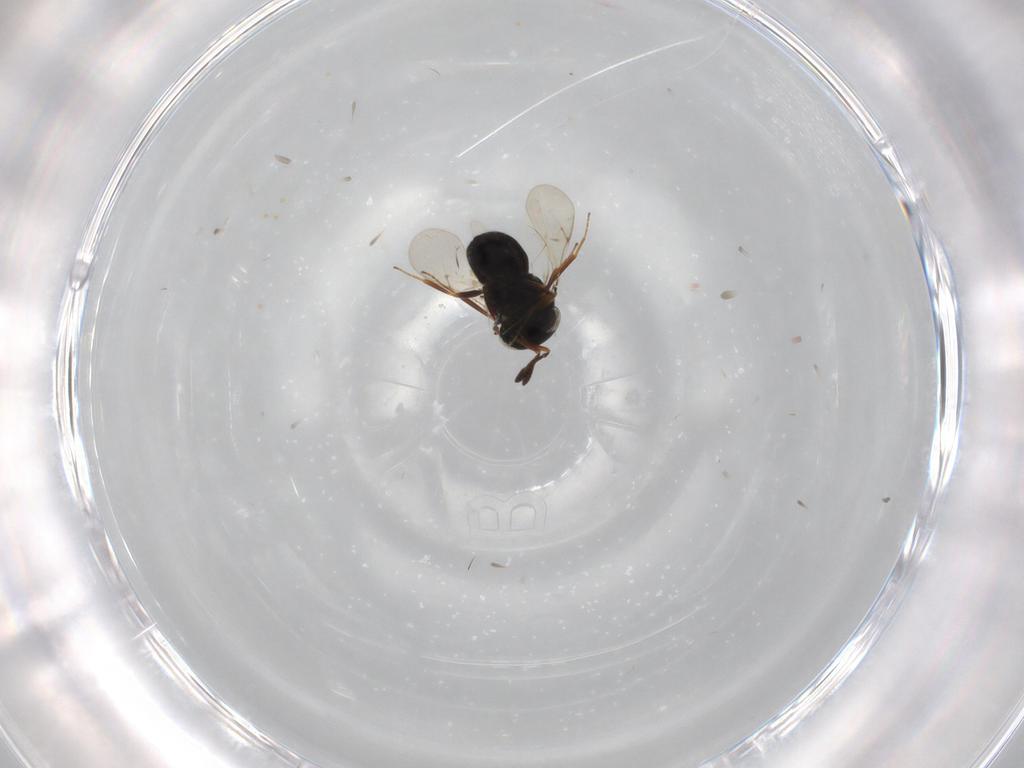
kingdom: Animalia
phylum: Arthropoda
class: Insecta
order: Hymenoptera
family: Scelionidae
